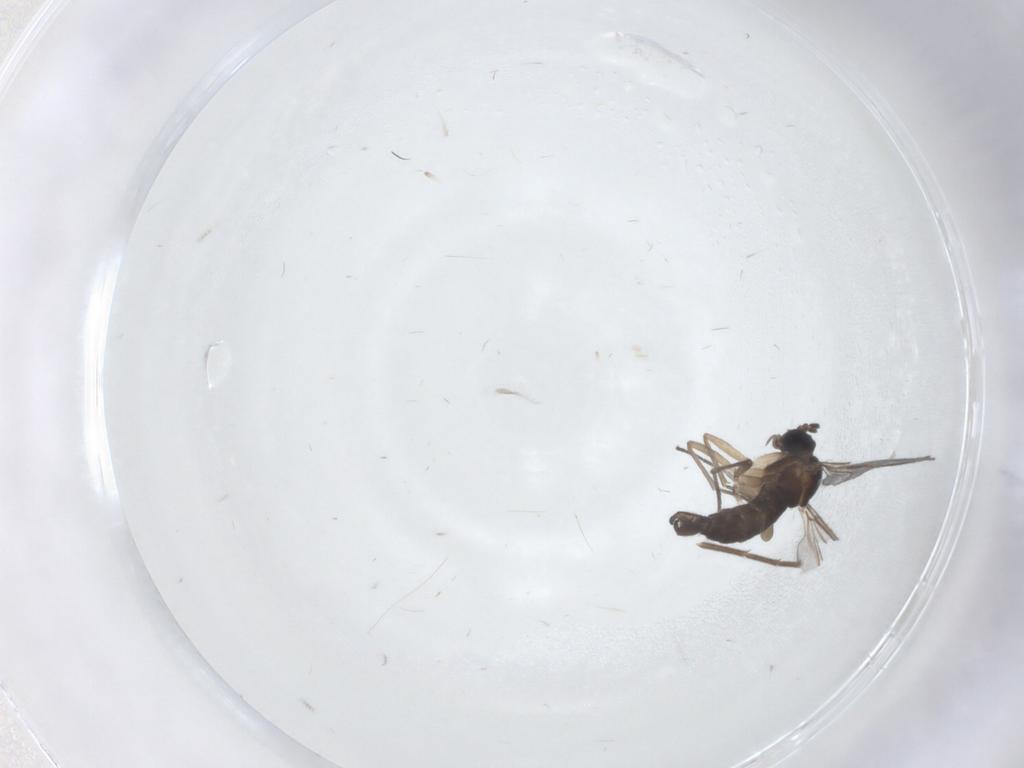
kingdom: Animalia
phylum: Arthropoda
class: Insecta
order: Diptera
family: Sciaridae
